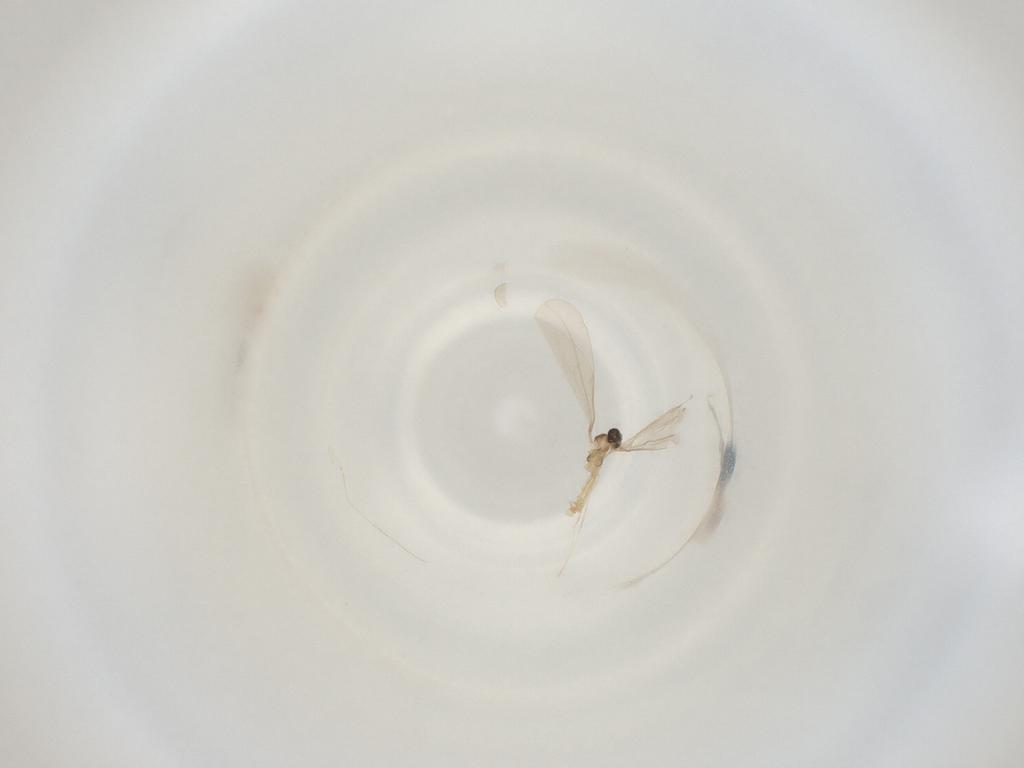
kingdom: Animalia
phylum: Arthropoda
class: Insecta
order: Diptera
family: Cecidomyiidae
